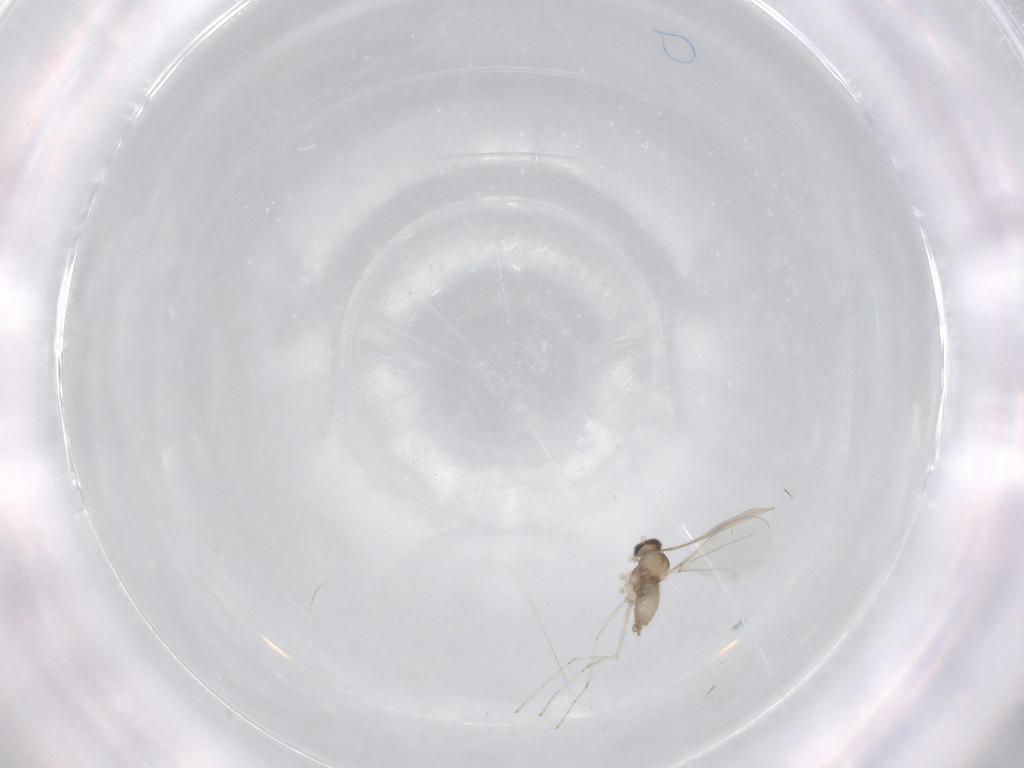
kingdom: Animalia
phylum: Arthropoda
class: Insecta
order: Diptera
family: Cecidomyiidae
